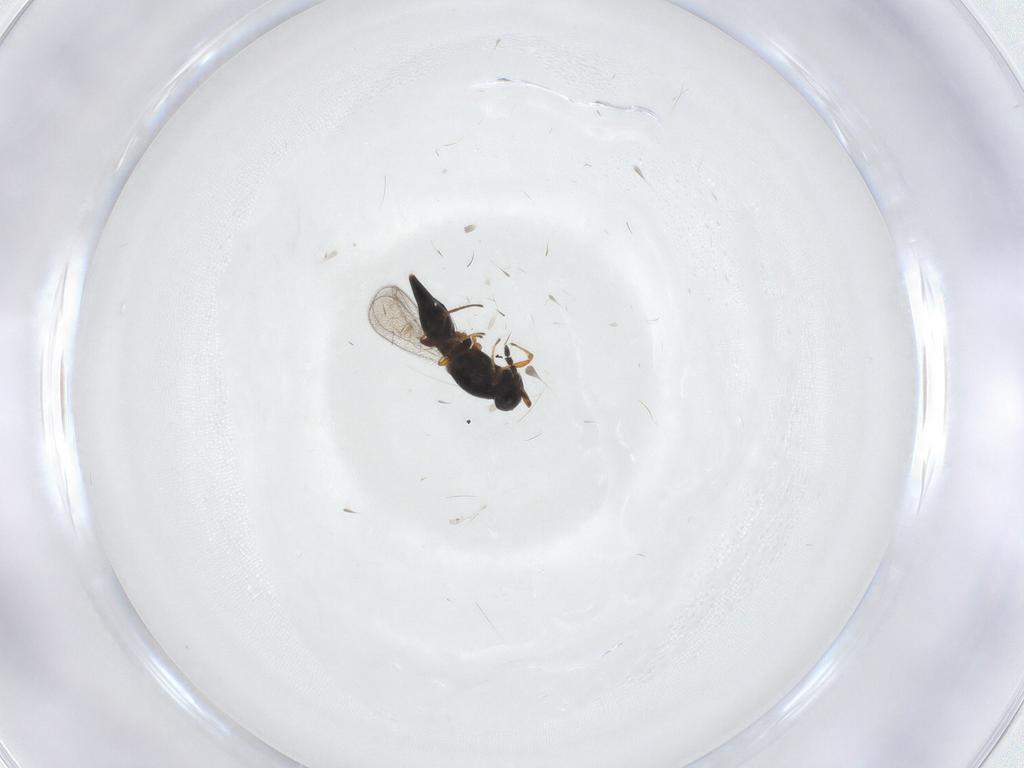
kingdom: Animalia
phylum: Arthropoda
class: Insecta
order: Hymenoptera
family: Platygastridae
